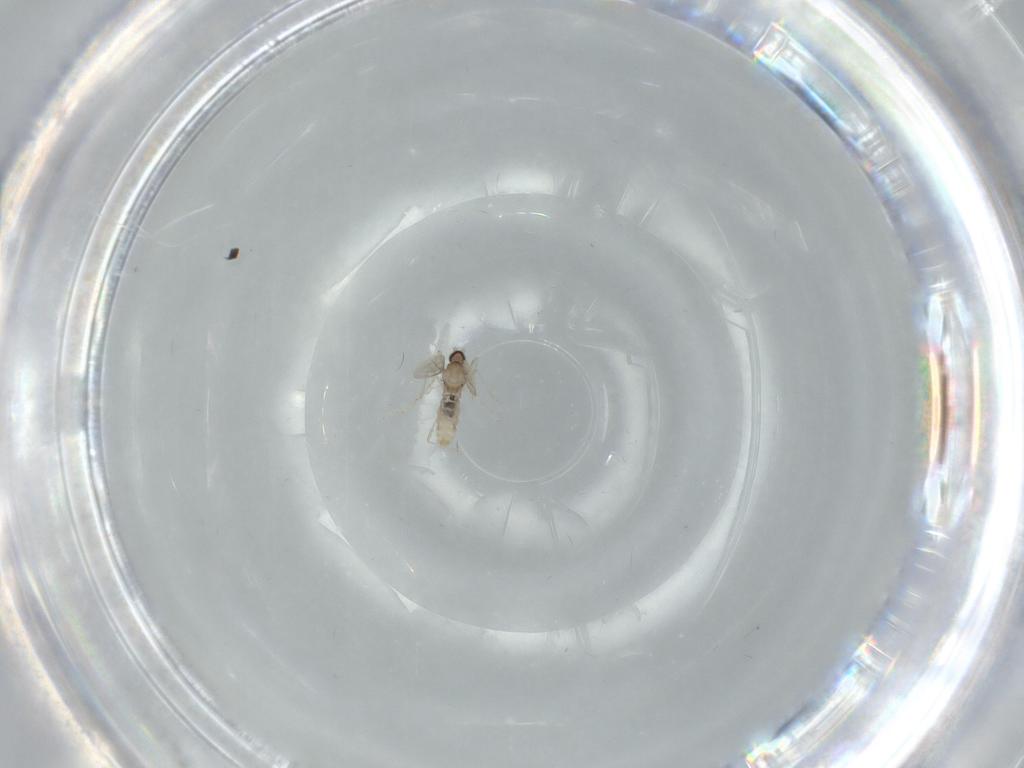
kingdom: Animalia
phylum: Arthropoda
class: Insecta
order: Diptera
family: Cecidomyiidae
